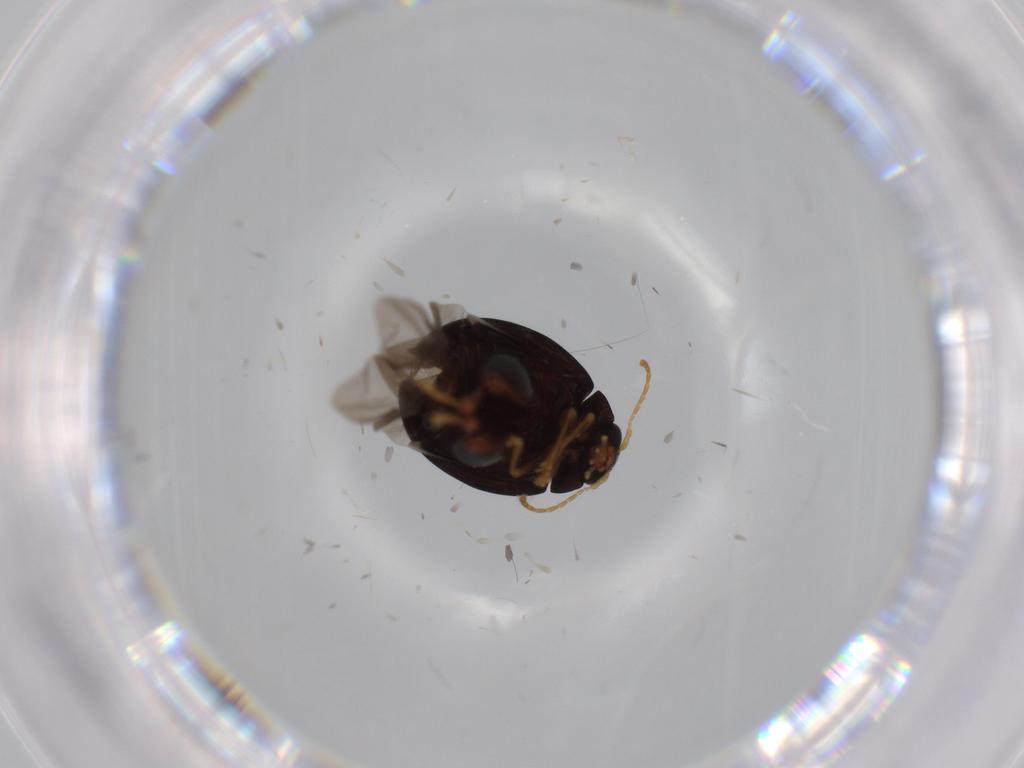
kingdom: Animalia
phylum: Arthropoda
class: Insecta
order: Coleoptera
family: Chrysomelidae
